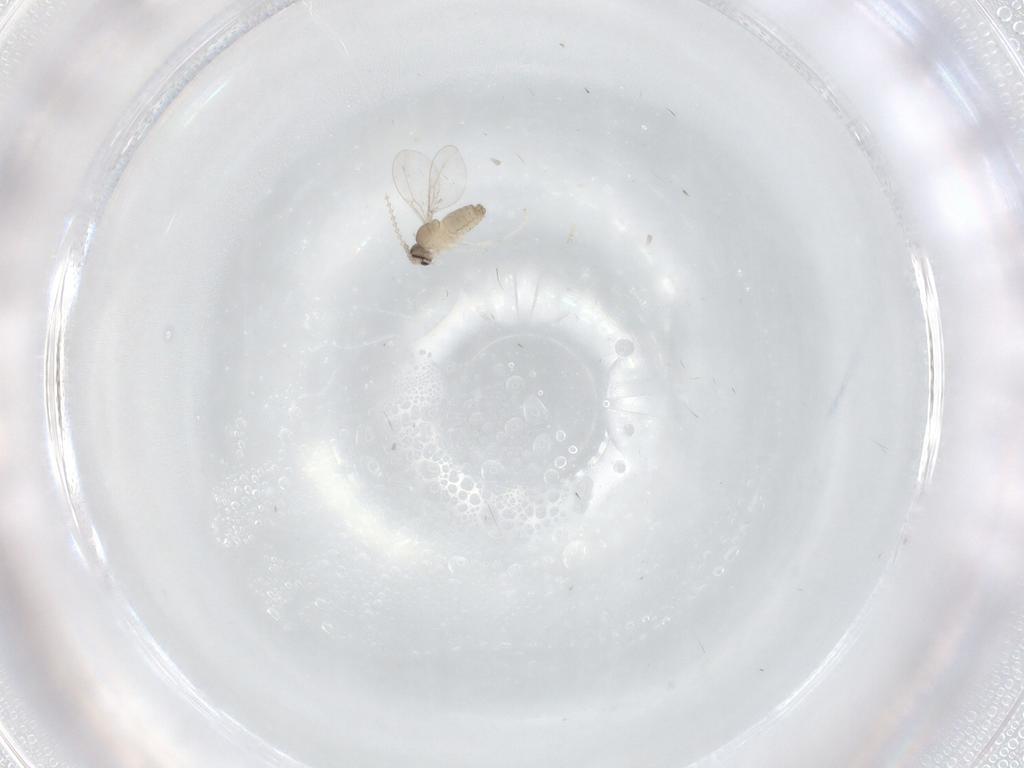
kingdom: Animalia
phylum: Arthropoda
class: Insecta
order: Diptera
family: Cecidomyiidae
